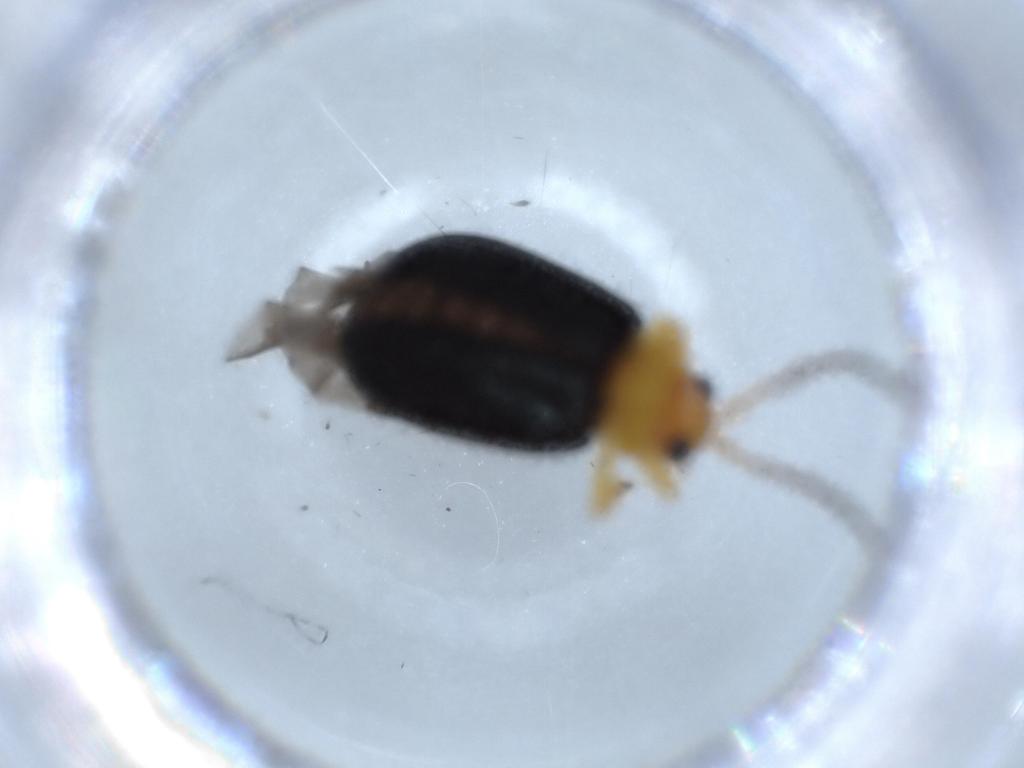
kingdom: Animalia
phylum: Arthropoda
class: Insecta
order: Coleoptera
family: Chrysomelidae
